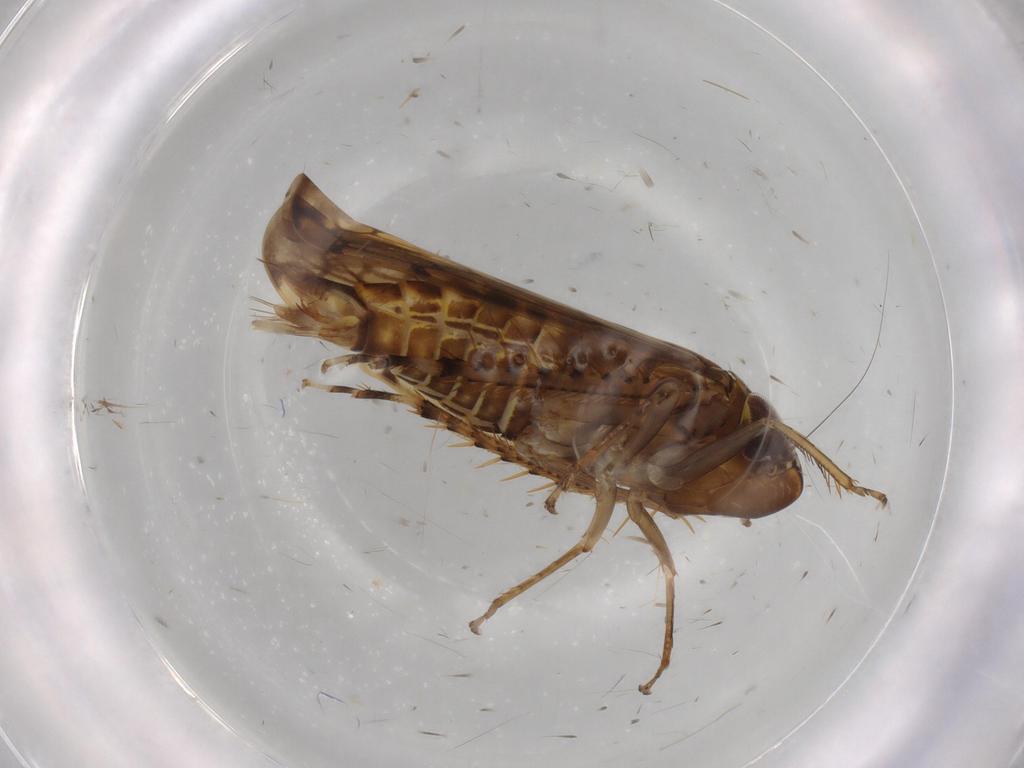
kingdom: Animalia
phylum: Arthropoda
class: Insecta
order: Hemiptera
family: Cicadellidae
